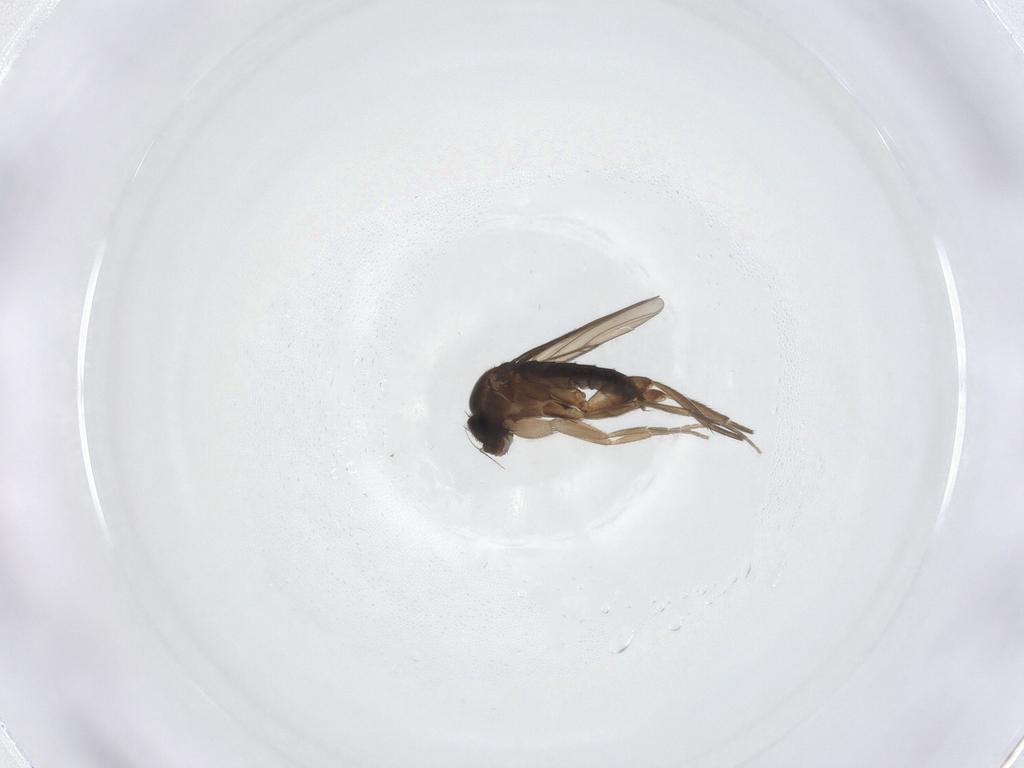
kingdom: Animalia
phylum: Arthropoda
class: Insecta
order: Diptera
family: Phoridae
